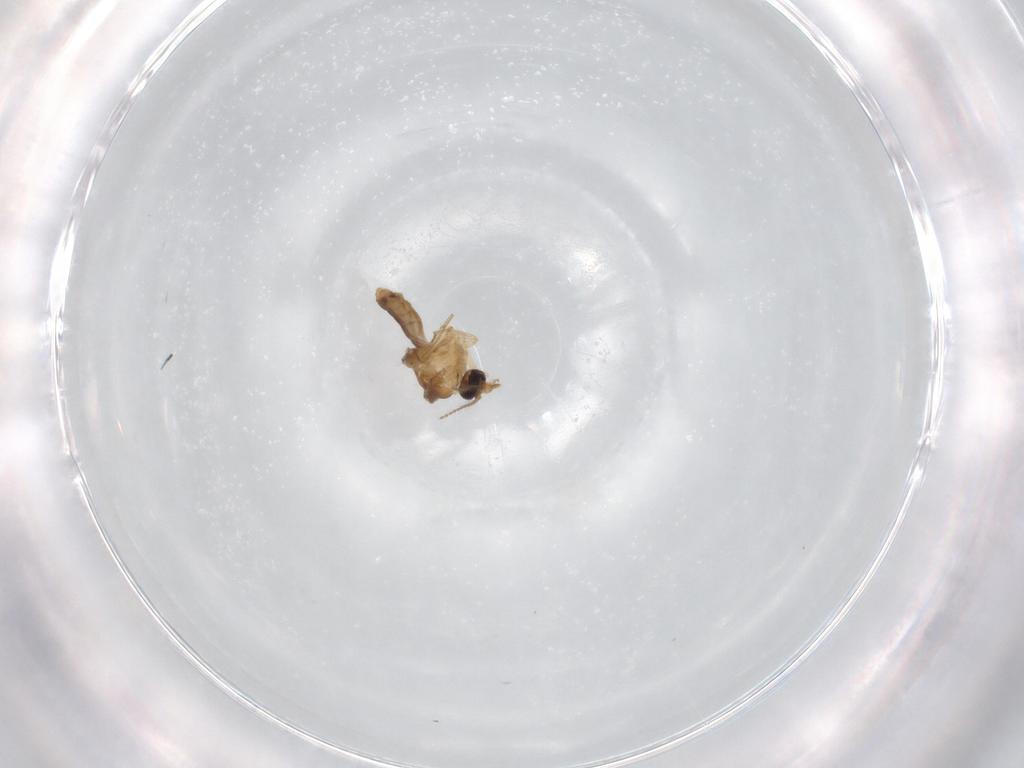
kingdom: Animalia
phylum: Arthropoda
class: Insecta
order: Diptera
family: Ceratopogonidae
